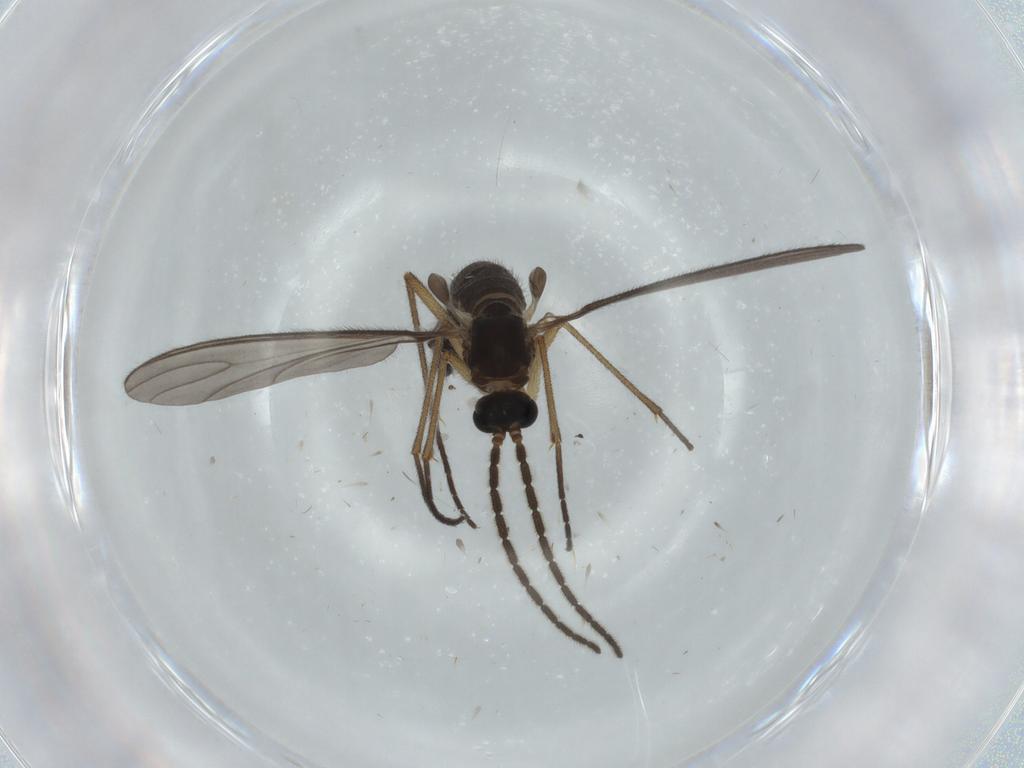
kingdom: Animalia
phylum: Arthropoda
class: Insecta
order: Diptera
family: Sciaridae
